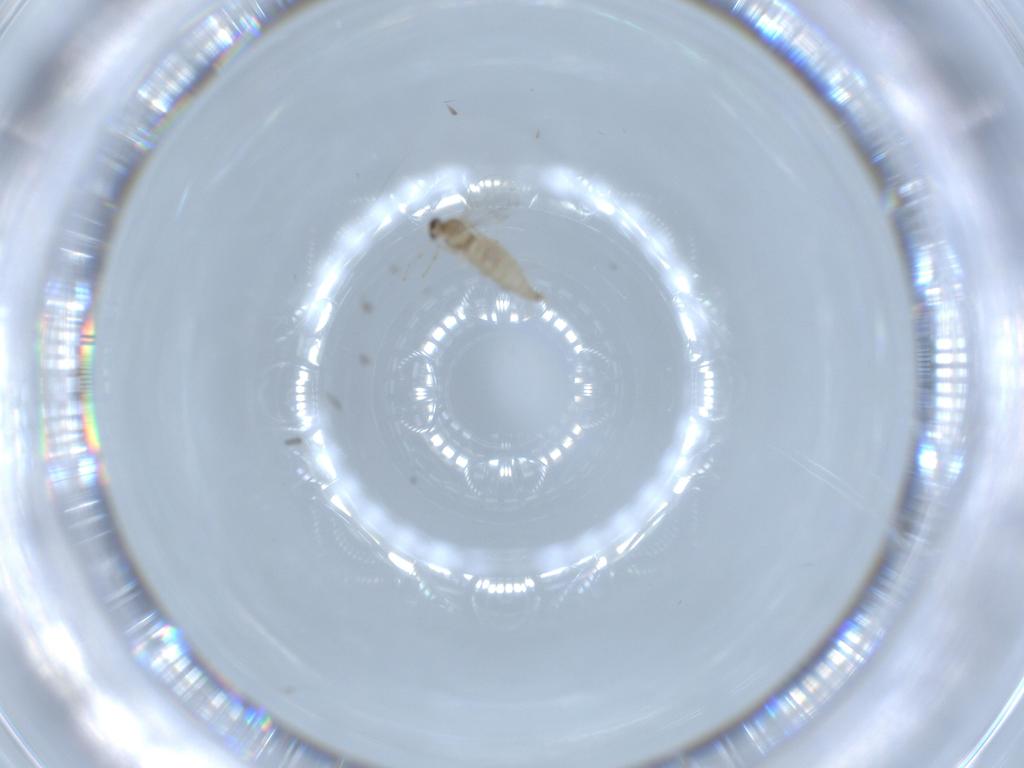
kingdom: Animalia
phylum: Arthropoda
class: Insecta
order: Diptera
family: Cecidomyiidae
